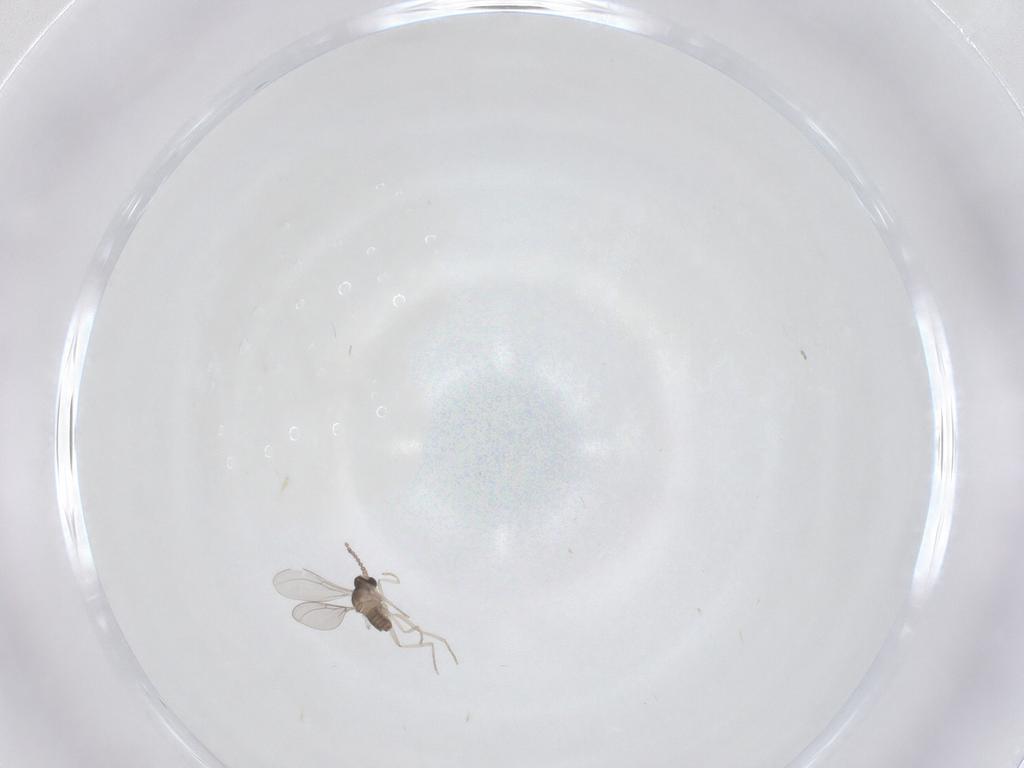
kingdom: Animalia
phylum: Arthropoda
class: Insecta
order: Diptera
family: Cecidomyiidae
